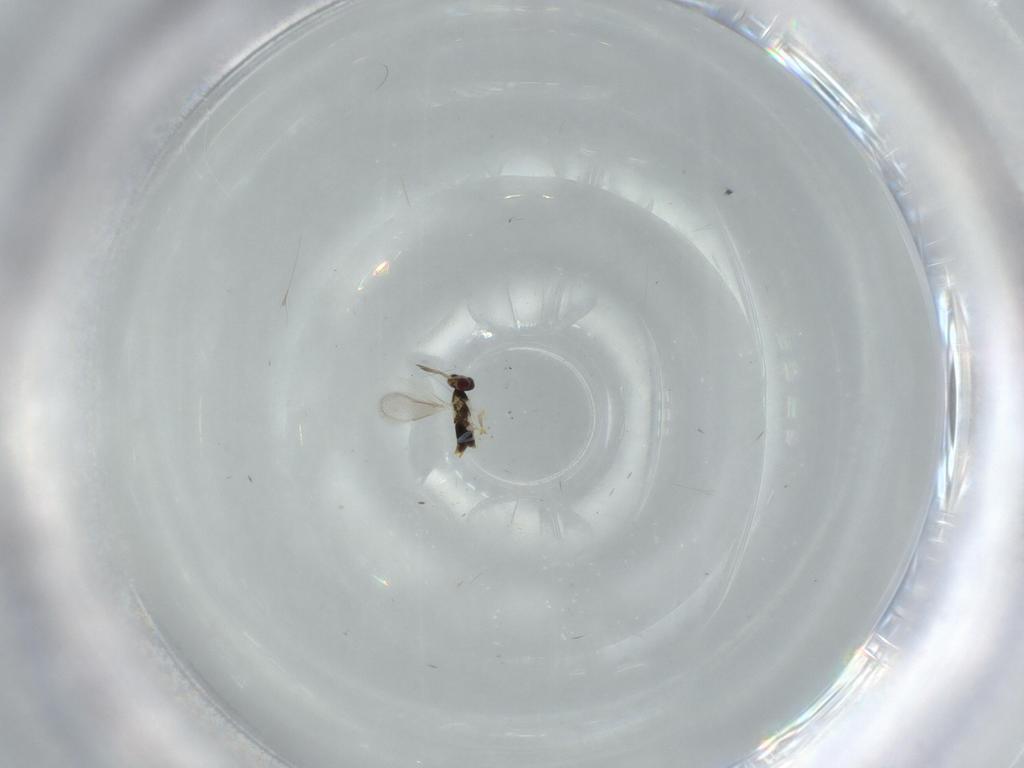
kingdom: Animalia
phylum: Arthropoda
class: Insecta
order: Hymenoptera
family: Aphelinidae
